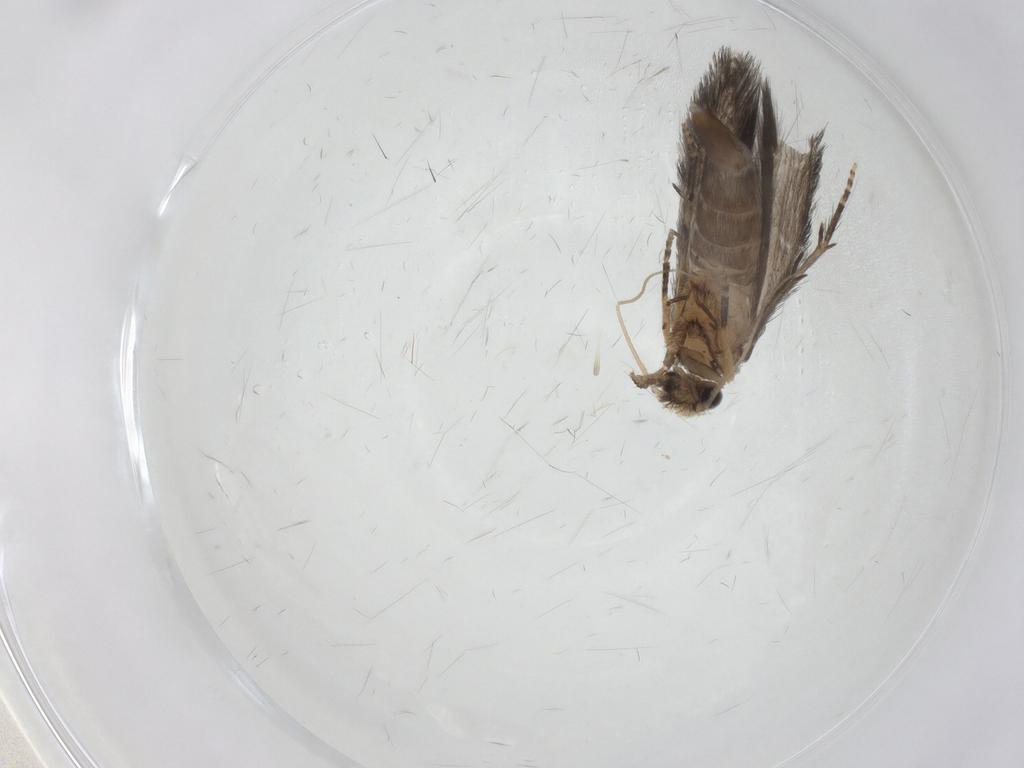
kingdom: Animalia
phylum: Arthropoda
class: Insecta
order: Trichoptera
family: Hydroptilidae
